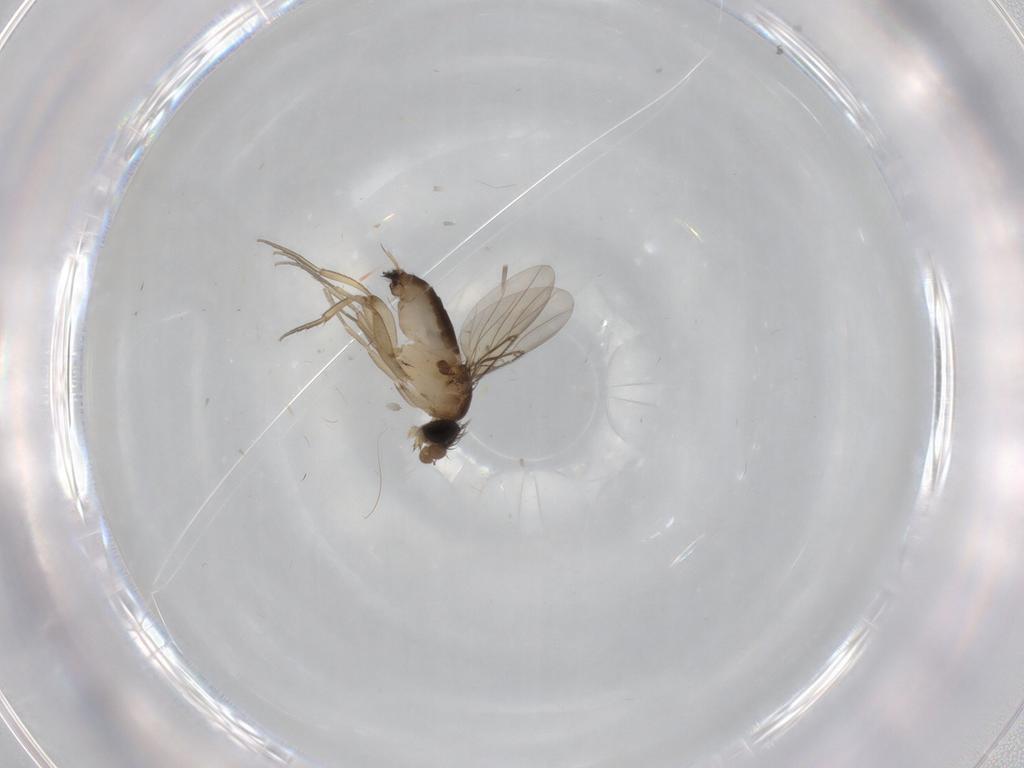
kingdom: Animalia
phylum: Arthropoda
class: Insecta
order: Diptera
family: Phoridae
